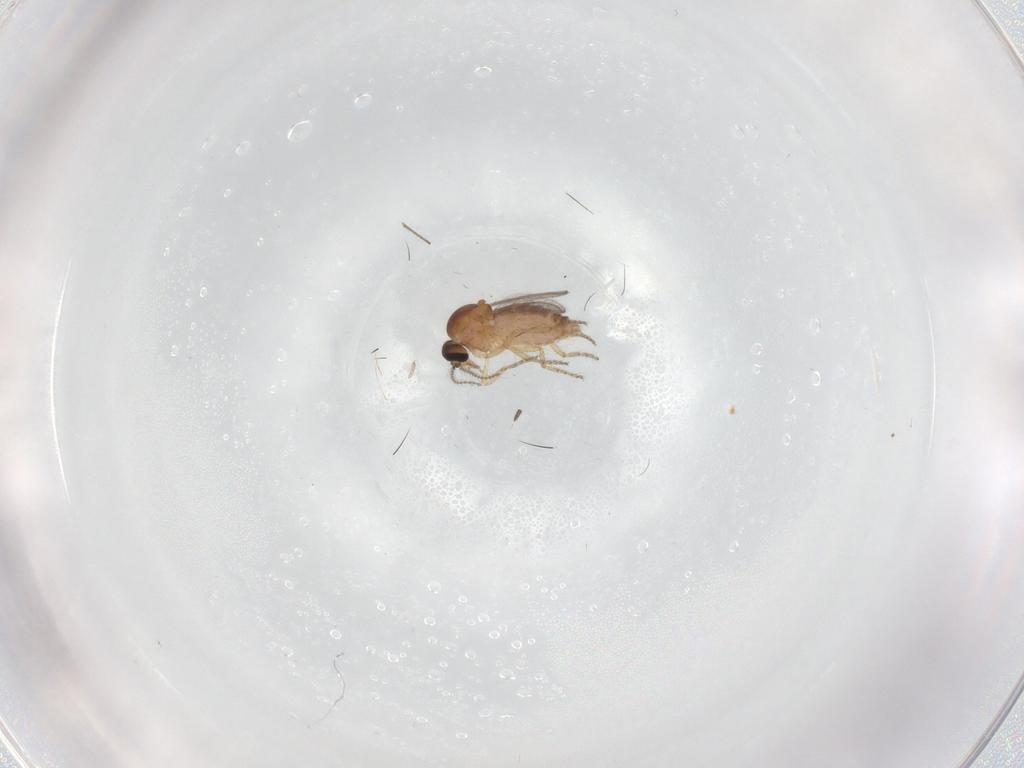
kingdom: Animalia
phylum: Arthropoda
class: Insecta
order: Diptera
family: Ceratopogonidae
